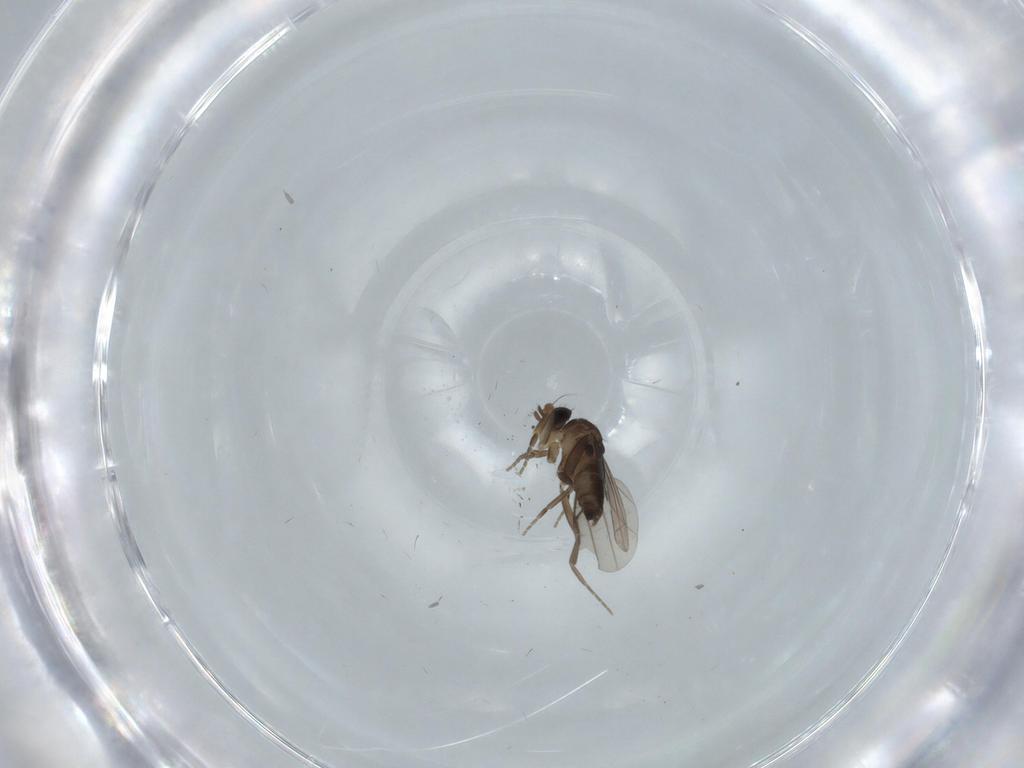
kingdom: Animalia
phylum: Arthropoda
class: Insecta
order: Diptera
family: Phoridae
